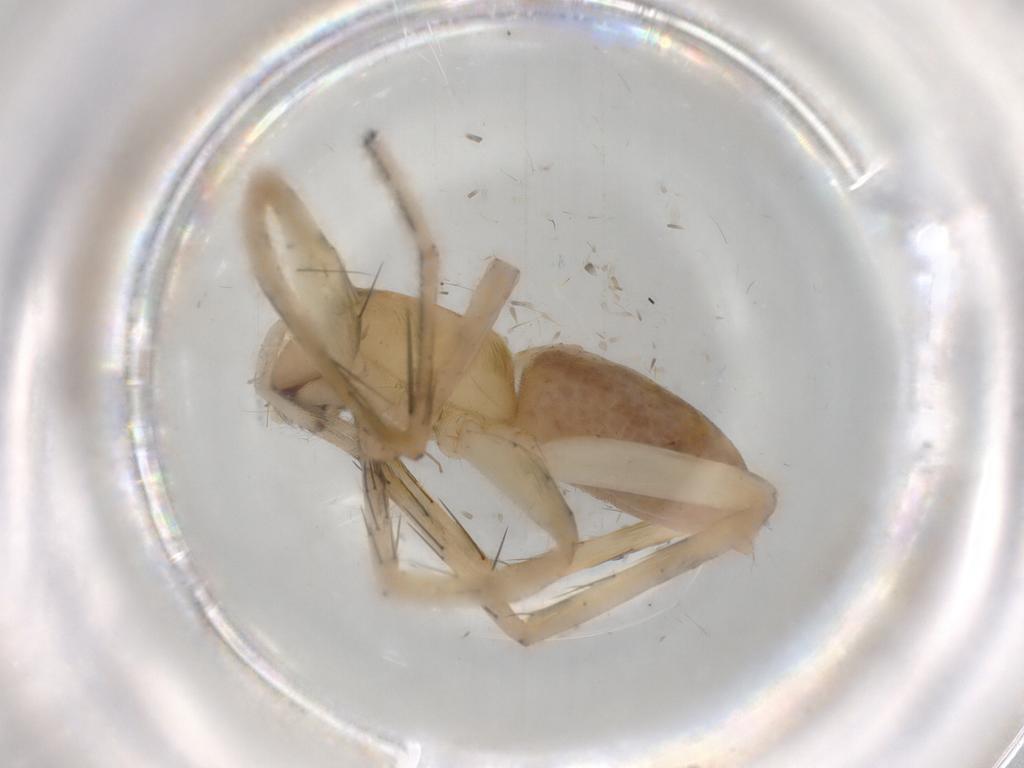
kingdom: Animalia
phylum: Arthropoda
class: Arachnida
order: Araneae
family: Anyphaenidae
